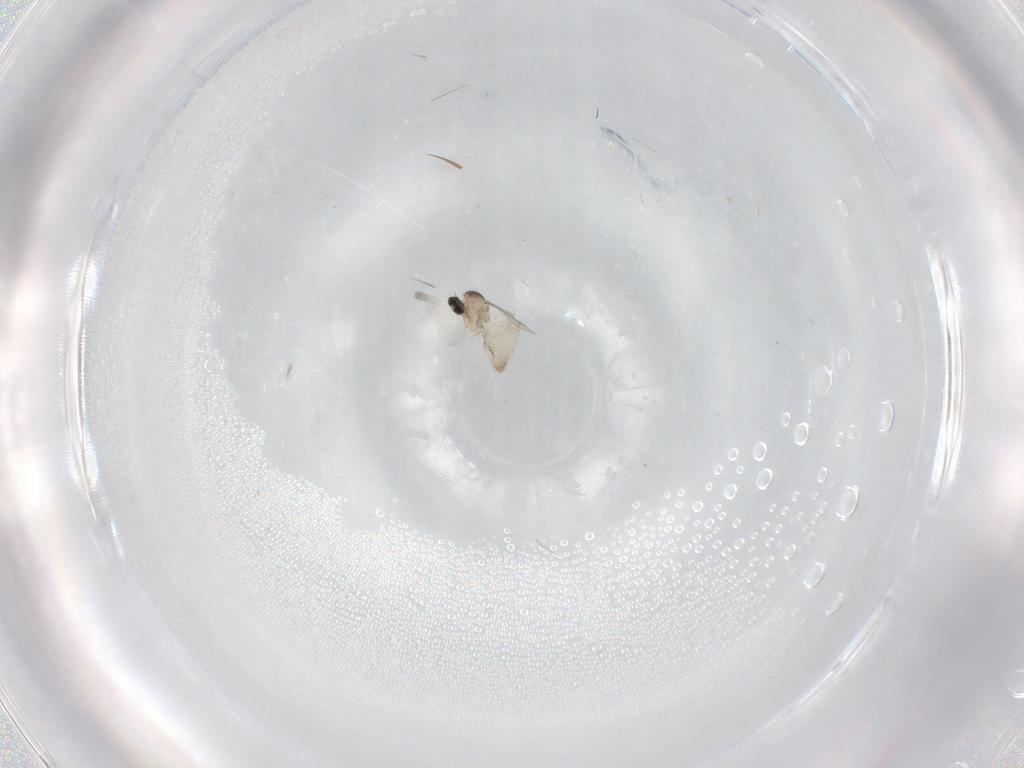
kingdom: Animalia
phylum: Arthropoda
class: Insecta
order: Diptera
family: Cecidomyiidae
